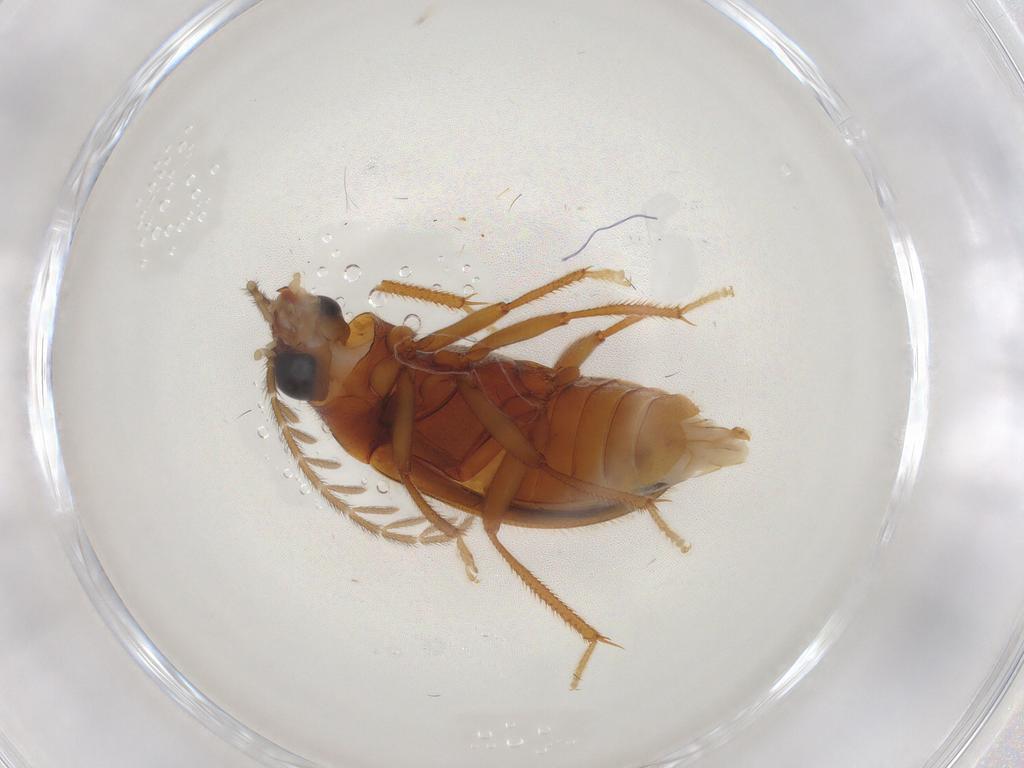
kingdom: Animalia
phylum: Arthropoda
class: Insecta
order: Coleoptera
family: Ptilodactylidae
